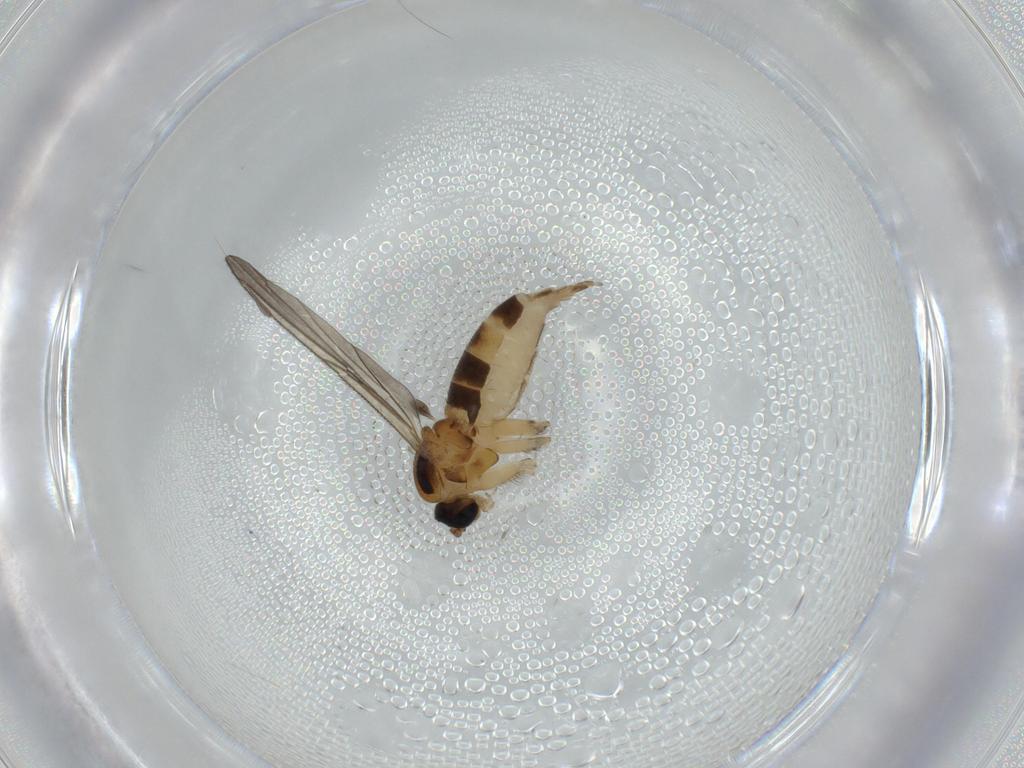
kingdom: Animalia
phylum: Arthropoda
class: Insecta
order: Diptera
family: Sciaridae
